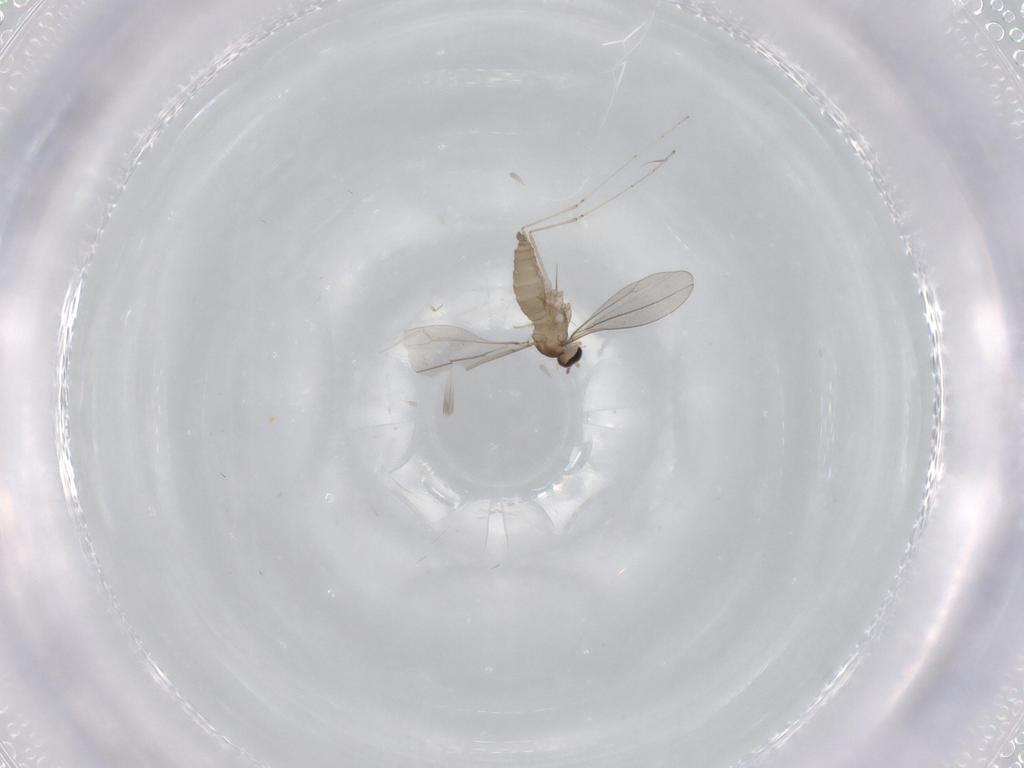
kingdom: Animalia
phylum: Arthropoda
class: Insecta
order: Diptera
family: Cecidomyiidae
